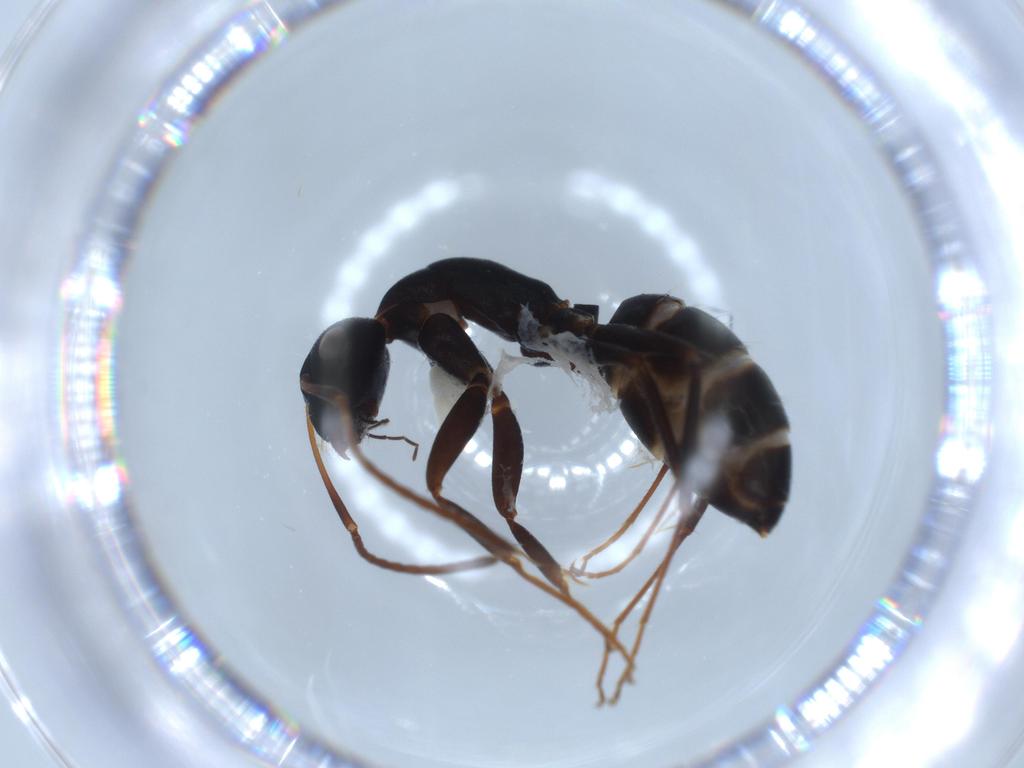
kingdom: Animalia
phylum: Arthropoda
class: Insecta
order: Hymenoptera
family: Formicidae
